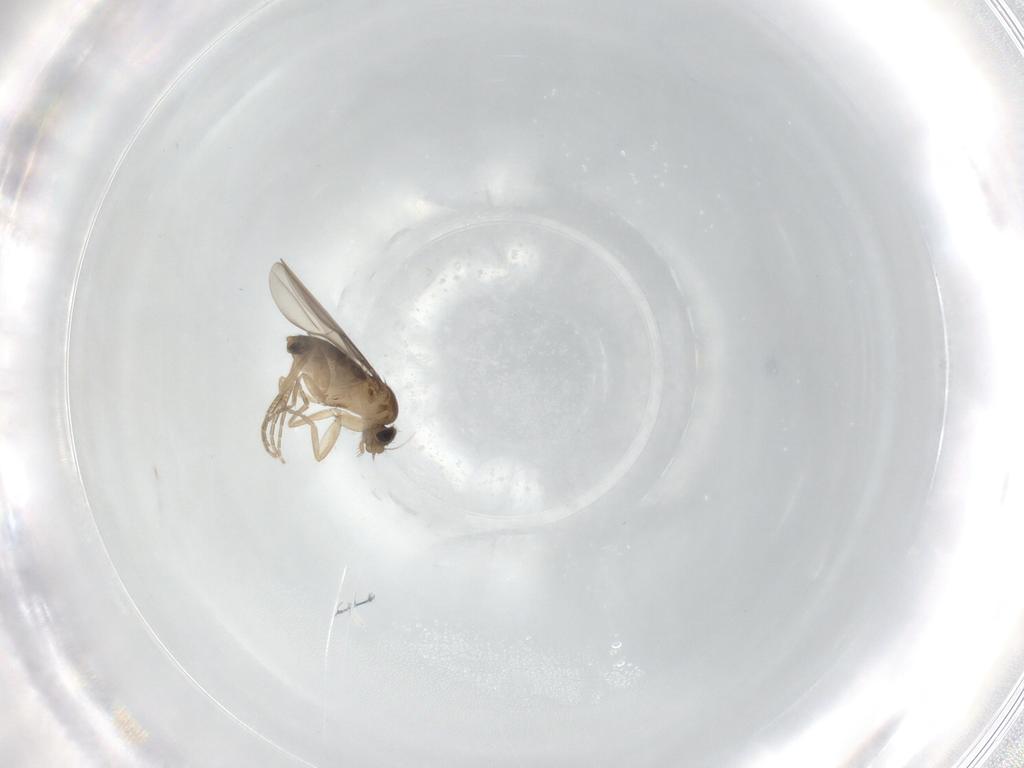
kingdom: Animalia
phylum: Arthropoda
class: Insecta
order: Diptera
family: Phoridae
